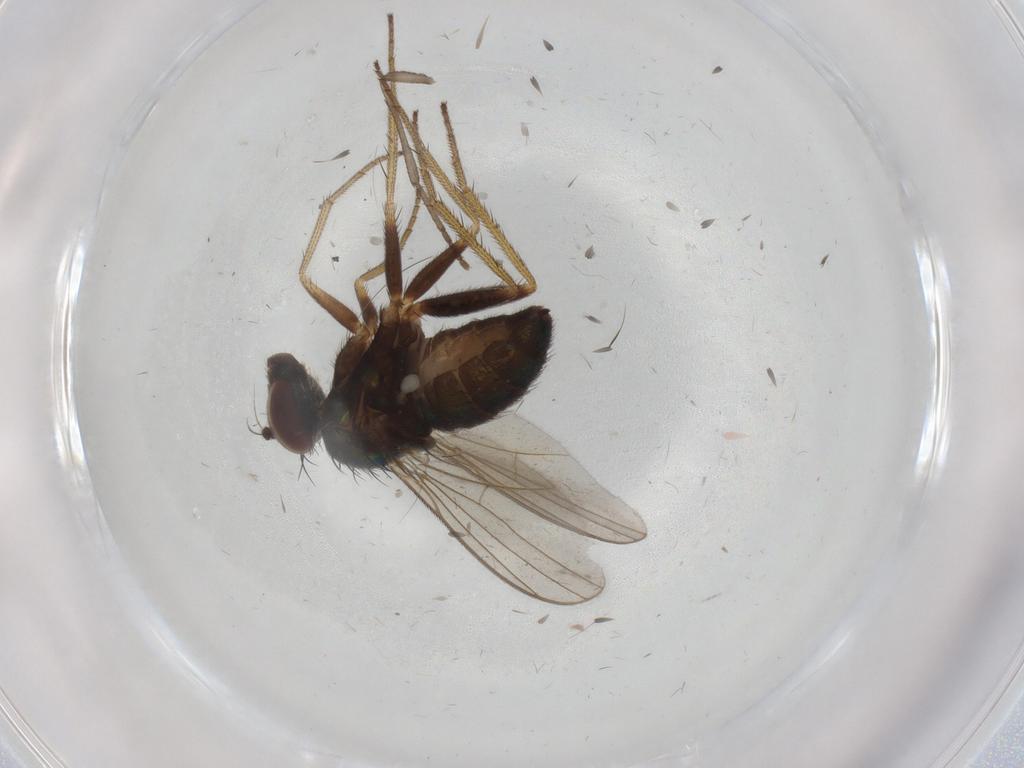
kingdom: Animalia
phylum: Arthropoda
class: Insecta
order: Diptera
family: Psychodidae
